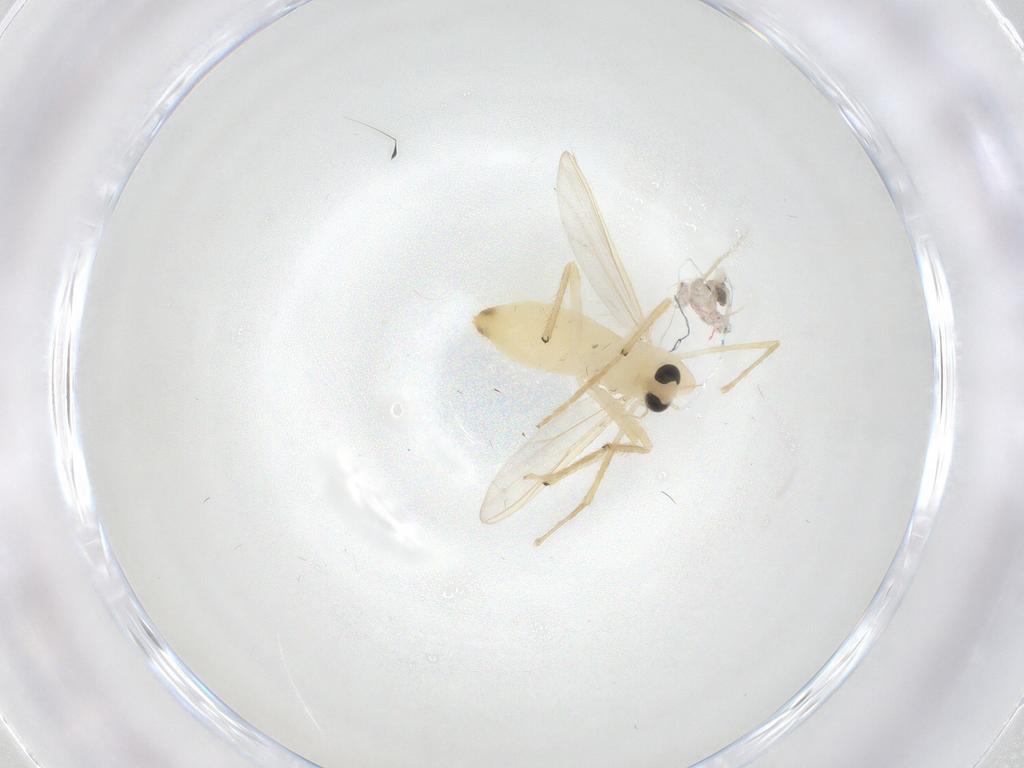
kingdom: Animalia
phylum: Arthropoda
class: Insecta
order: Diptera
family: Chironomidae
